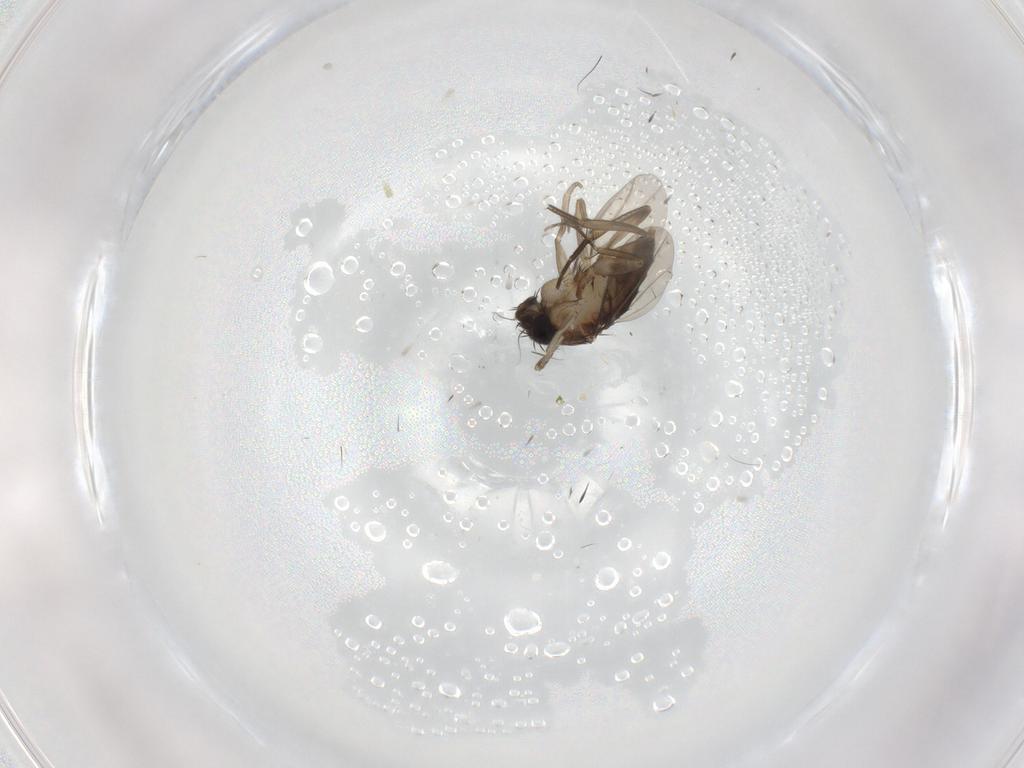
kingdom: Animalia
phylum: Arthropoda
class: Insecta
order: Diptera
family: Phoridae
